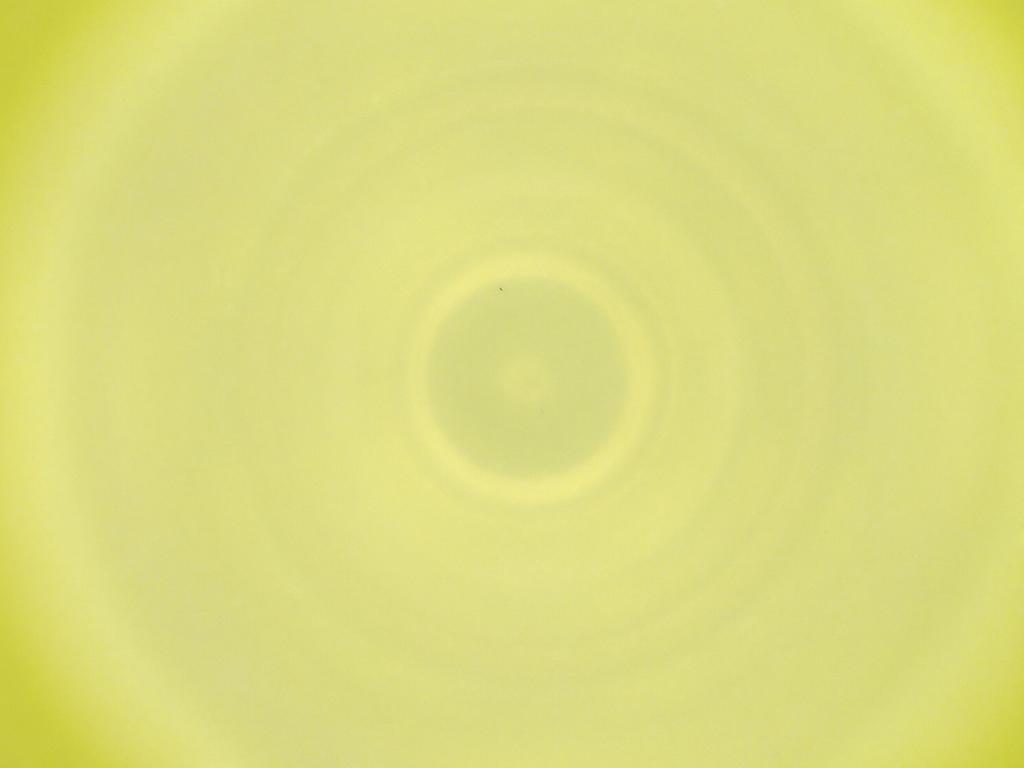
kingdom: Animalia
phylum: Arthropoda
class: Insecta
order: Diptera
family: Cecidomyiidae
